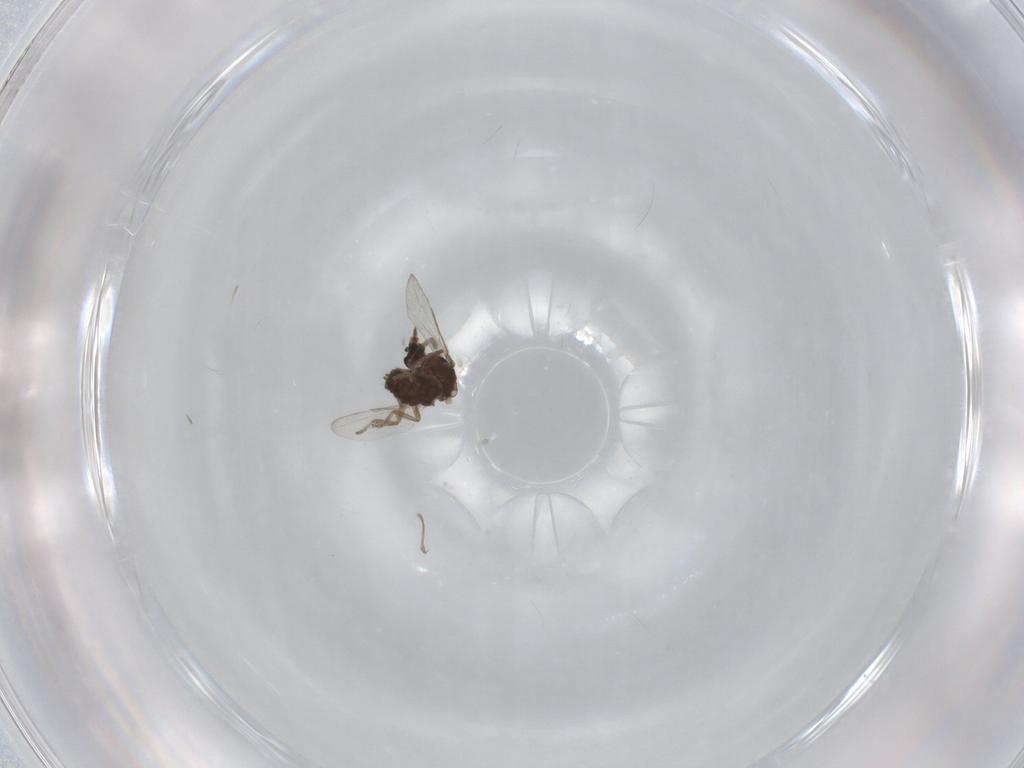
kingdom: Animalia
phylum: Arthropoda
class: Insecta
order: Diptera
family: Ceratopogonidae
